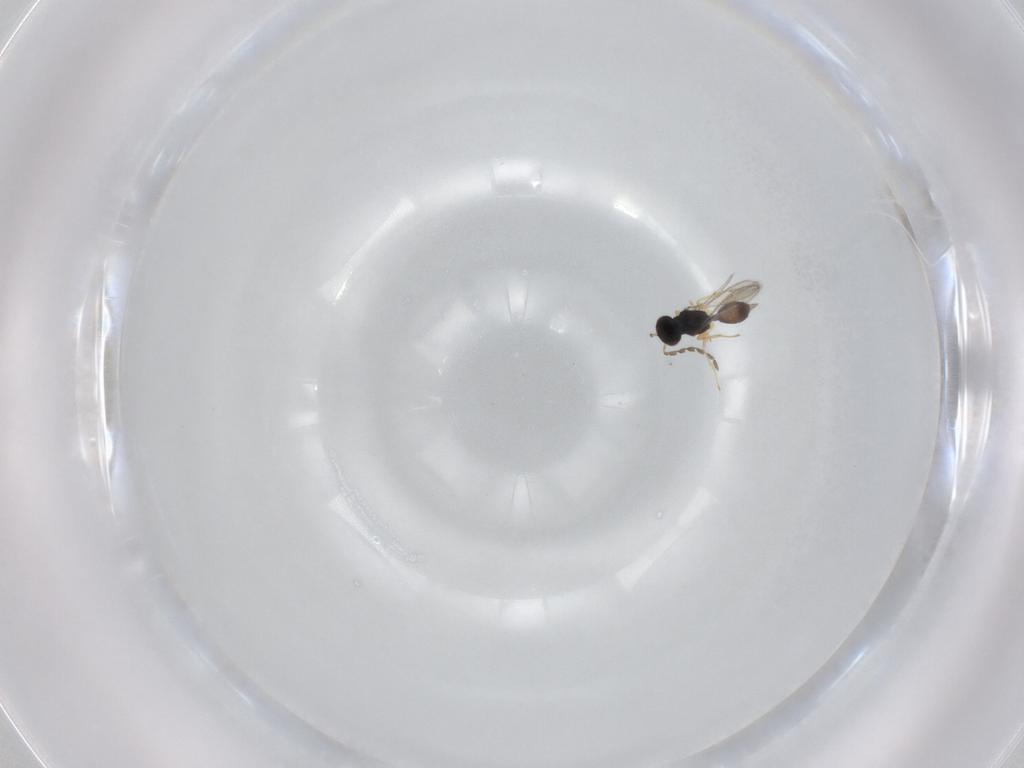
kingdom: Animalia
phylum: Arthropoda
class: Insecta
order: Hymenoptera
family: Eulophidae
